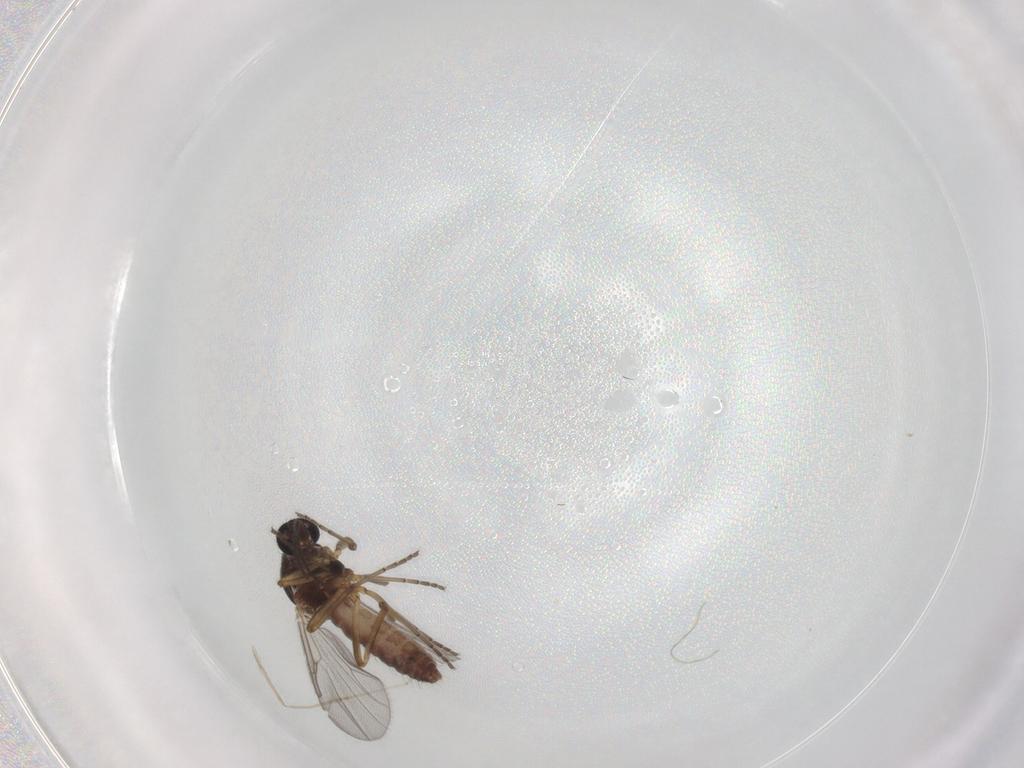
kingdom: Animalia
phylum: Arthropoda
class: Insecta
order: Diptera
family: Ceratopogonidae
